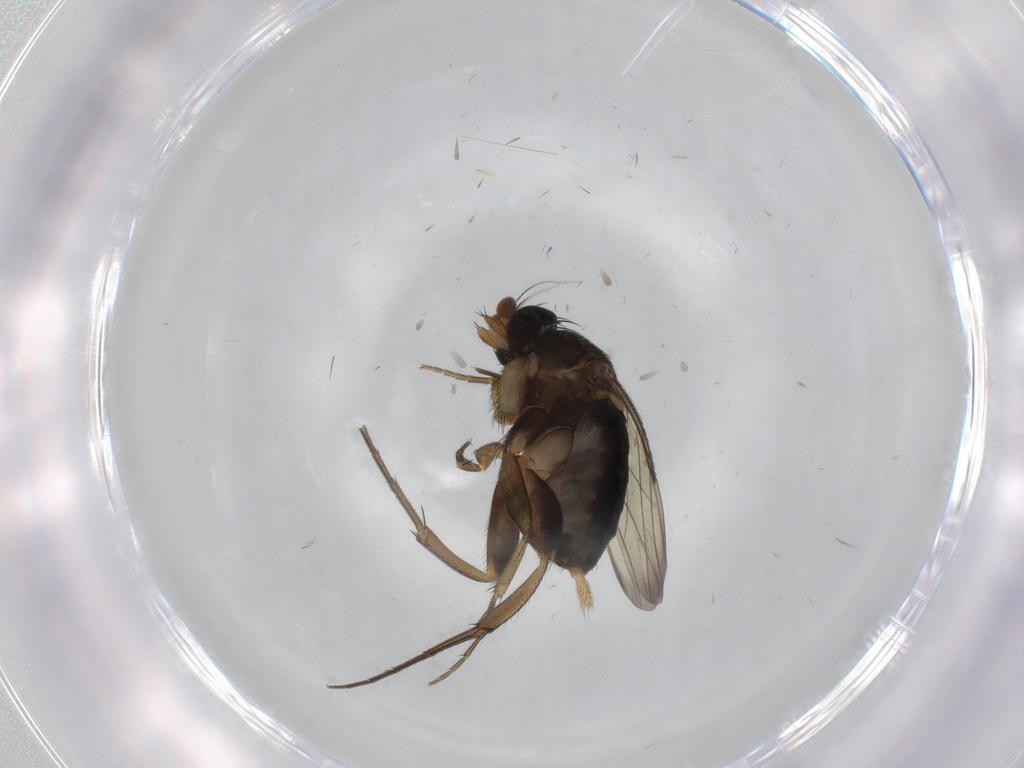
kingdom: Animalia
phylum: Arthropoda
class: Insecta
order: Diptera
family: Phoridae
